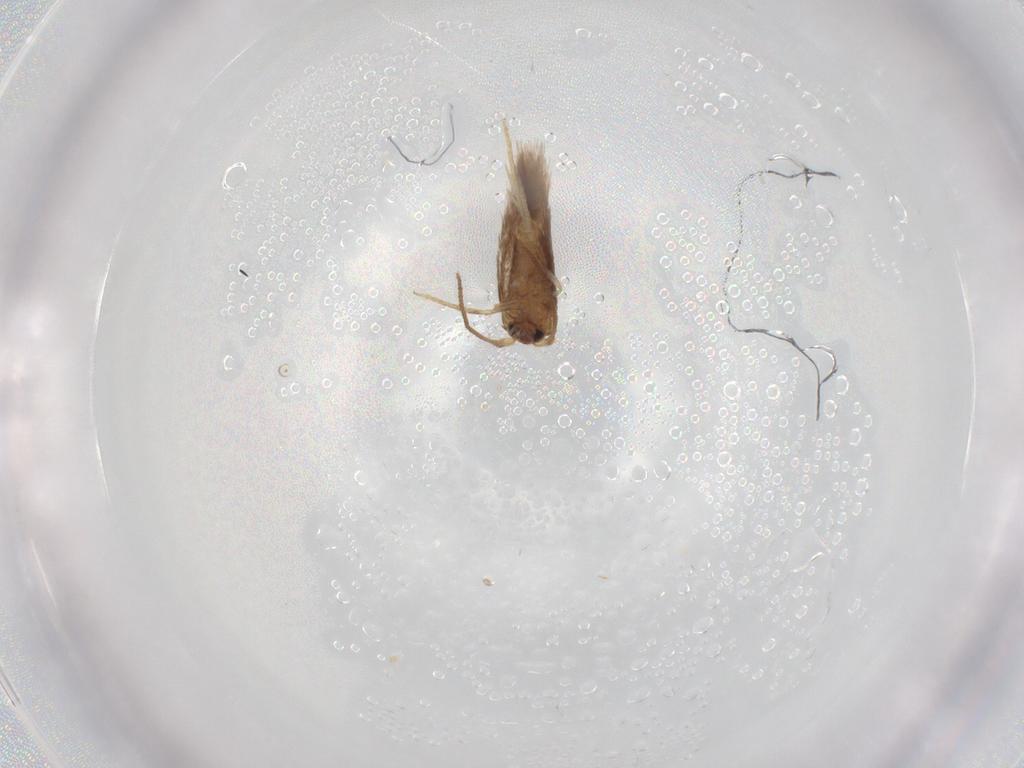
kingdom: Animalia
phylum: Arthropoda
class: Insecta
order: Lepidoptera
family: Nepticulidae
